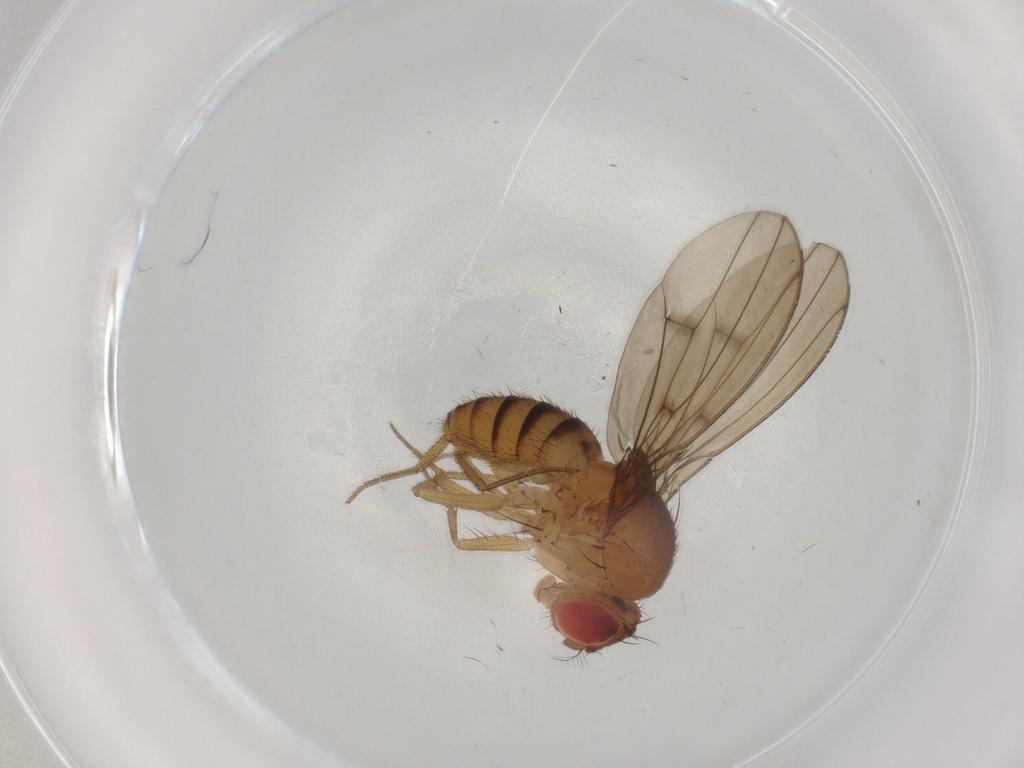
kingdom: Animalia
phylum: Arthropoda
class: Insecta
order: Diptera
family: Drosophilidae
